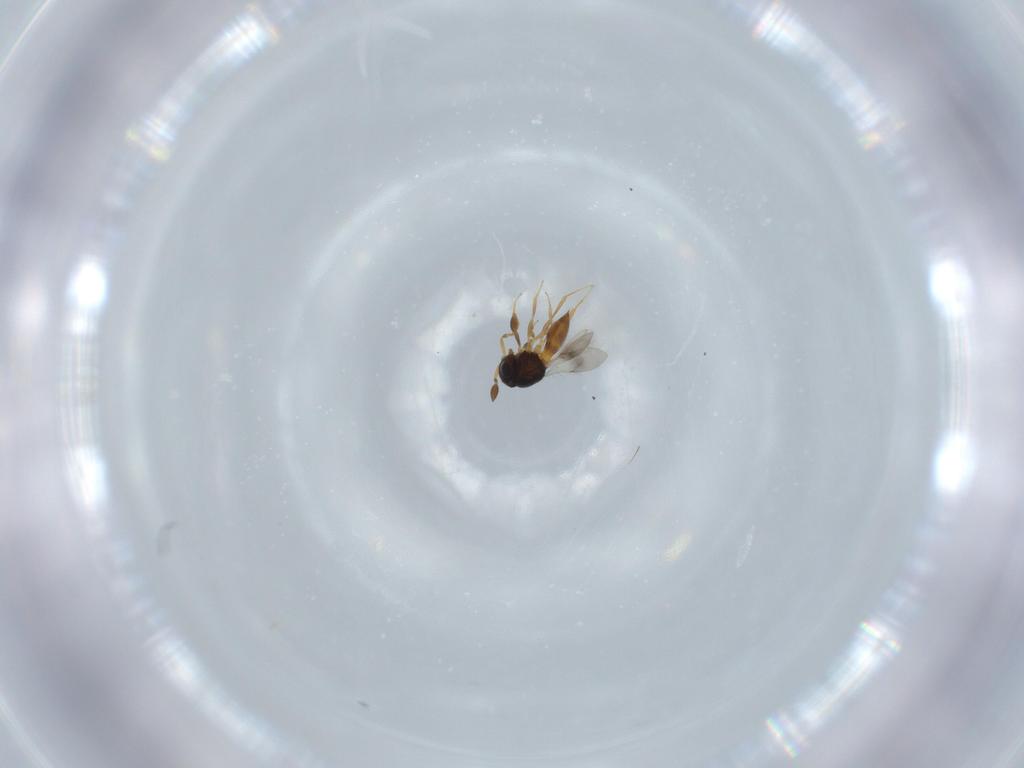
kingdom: Animalia
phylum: Arthropoda
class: Insecta
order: Hymenoptera
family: Scelionidae
